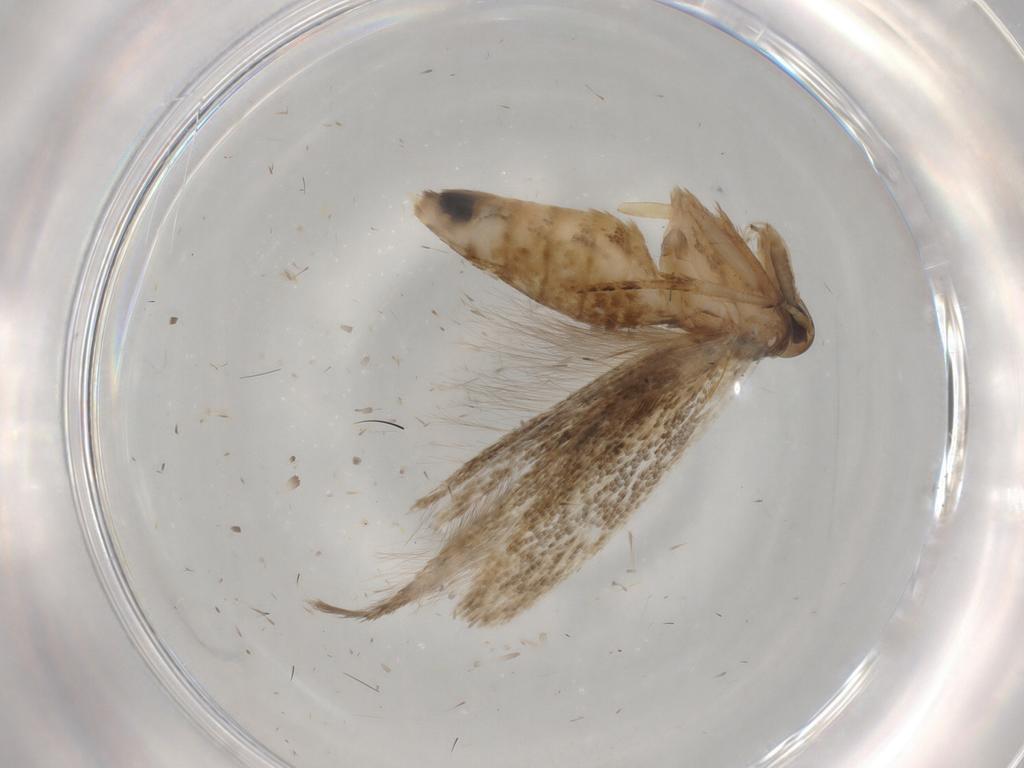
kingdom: Animalia
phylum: Arthropoda
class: Insecta
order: Lepidoptera
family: Cosmopterigidae
